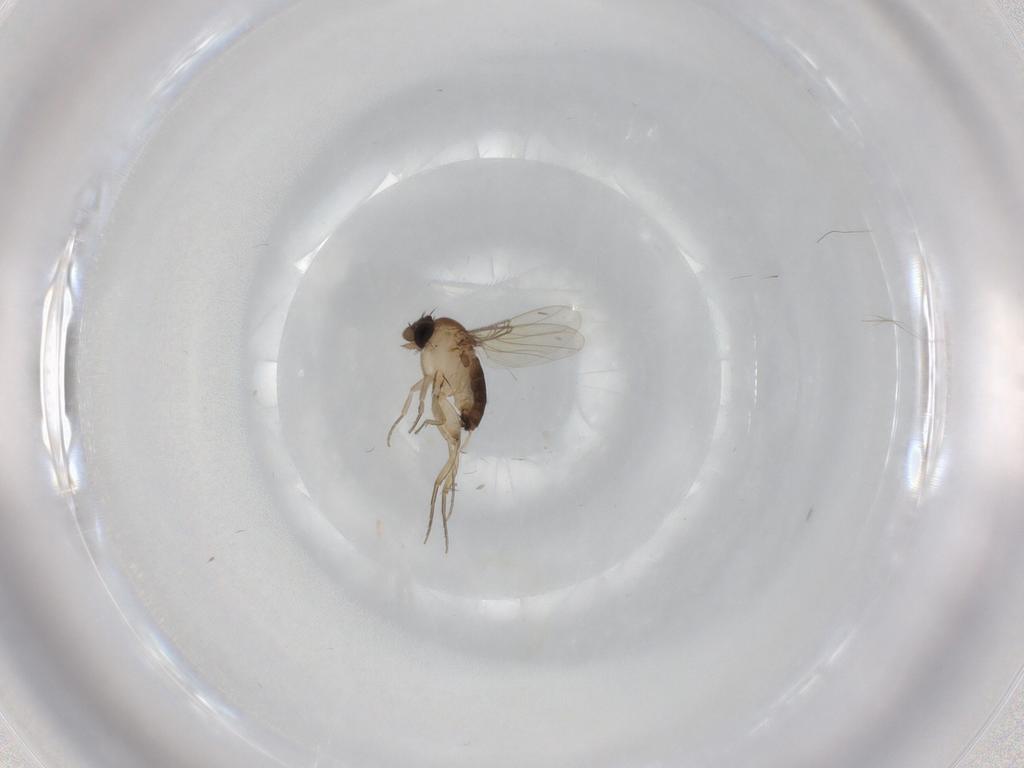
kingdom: Animalia
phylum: Arthropoda
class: Insecta
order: Diptera
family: Phoridae
